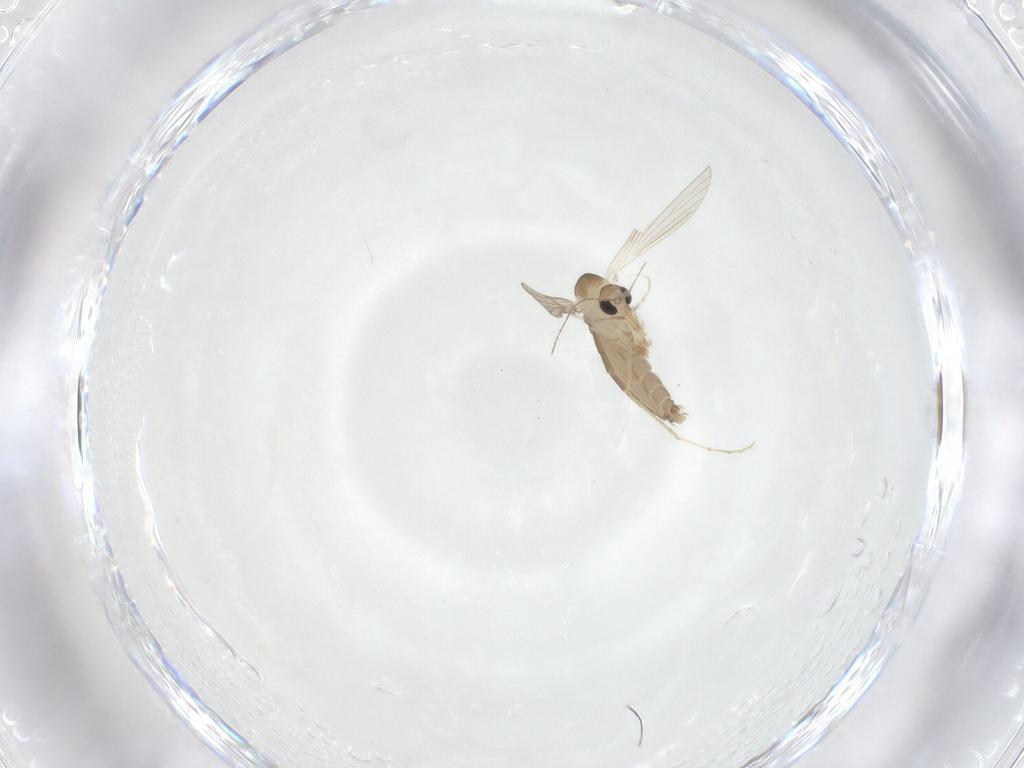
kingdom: Animalia
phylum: Arthropoda
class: Insecta
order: Diptera
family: Psychodidae
